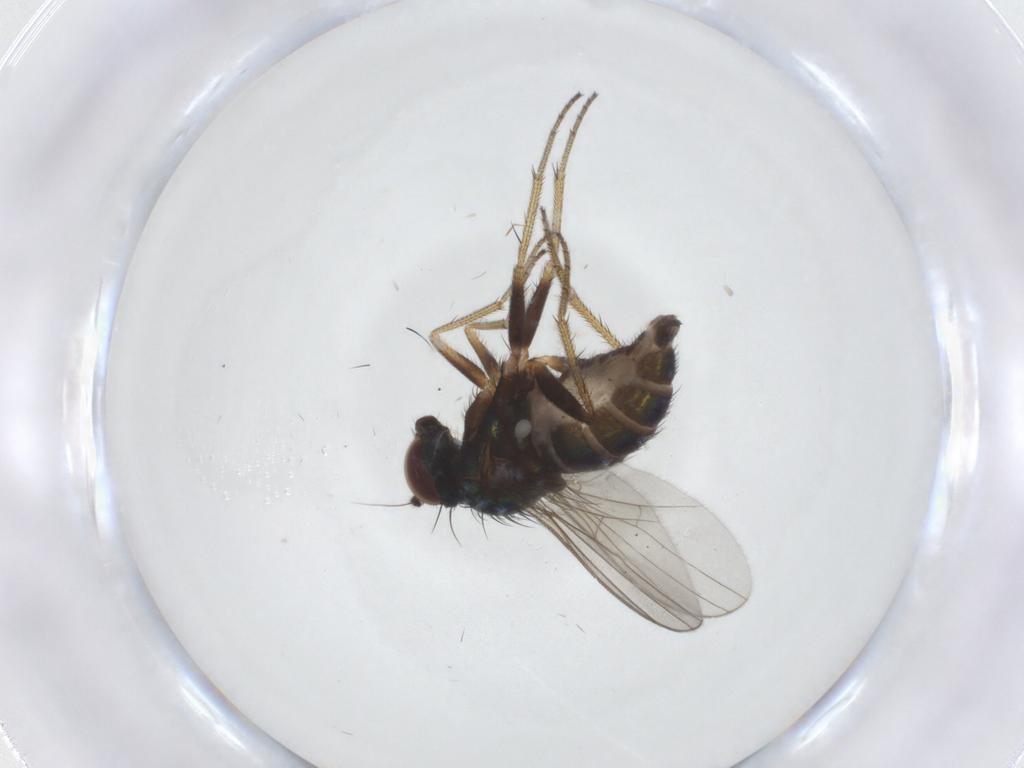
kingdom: Animalia
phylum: Arthropoda
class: Insecta
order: Diptera
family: Dolichopodidae
